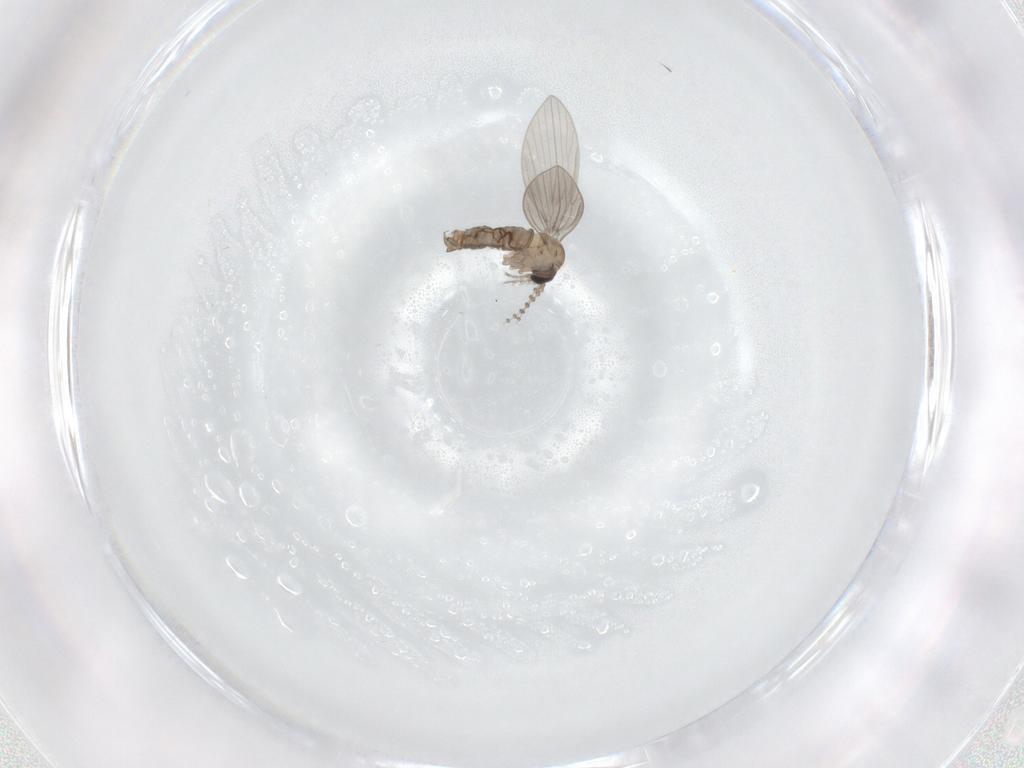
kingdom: Animalia
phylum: Arthropoda
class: Insecta
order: Diptera
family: Psychodidae
